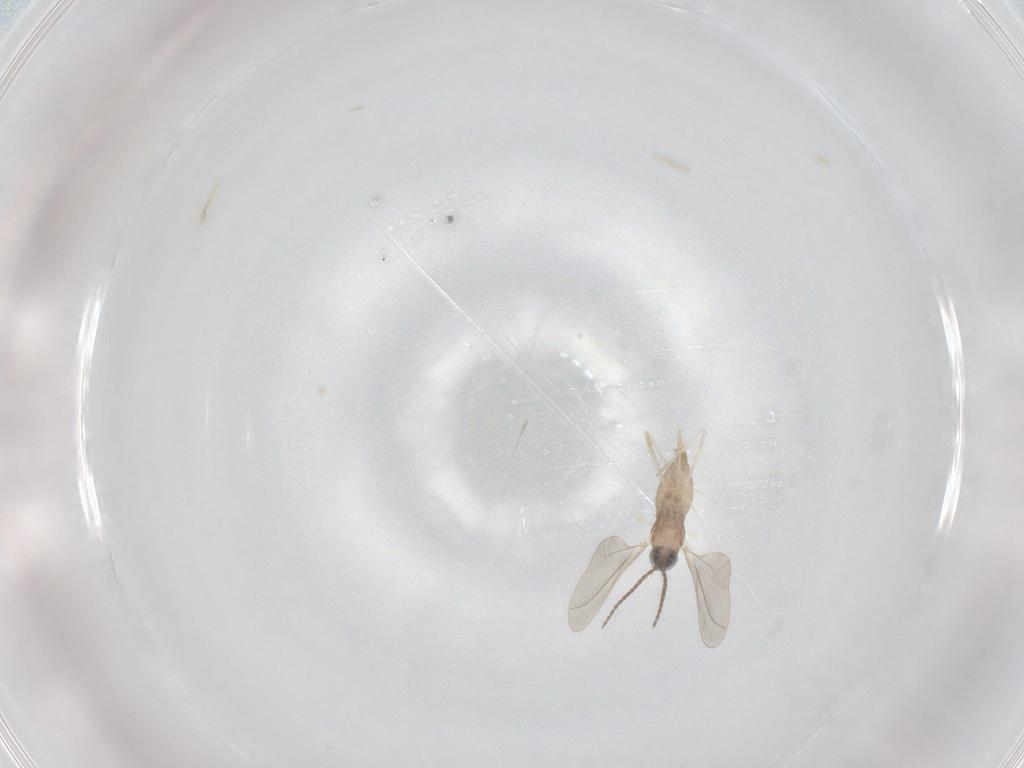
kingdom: Animalia
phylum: Arthropoda
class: Insecta
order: Diptera
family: Cecidomyiidae
